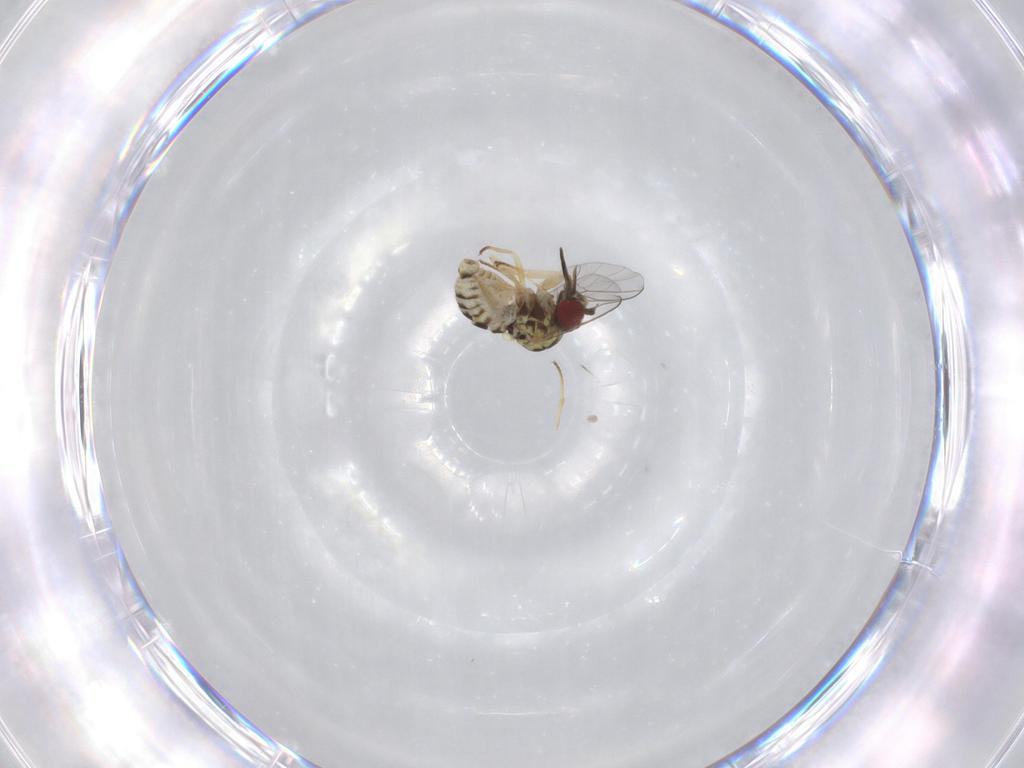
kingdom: Animalia
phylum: Arthropoda
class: Insecta
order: Diptera
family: Bombyliidae
